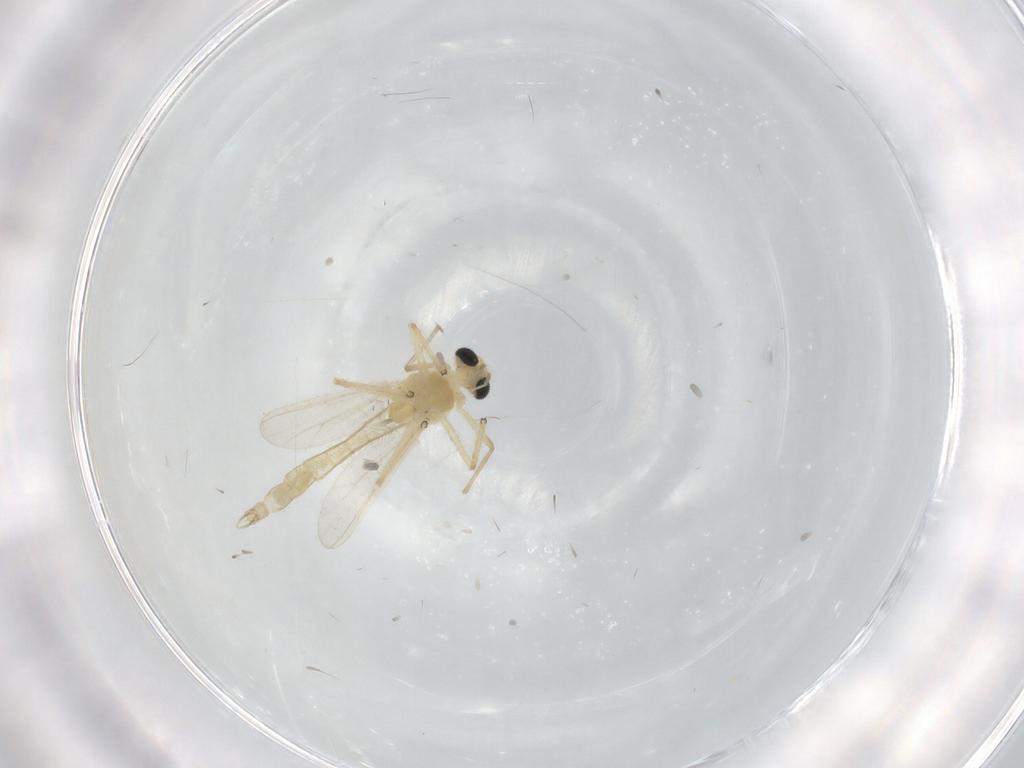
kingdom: Animalia
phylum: Arthropoda
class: Insecta
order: Diptera
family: Chironomidae
